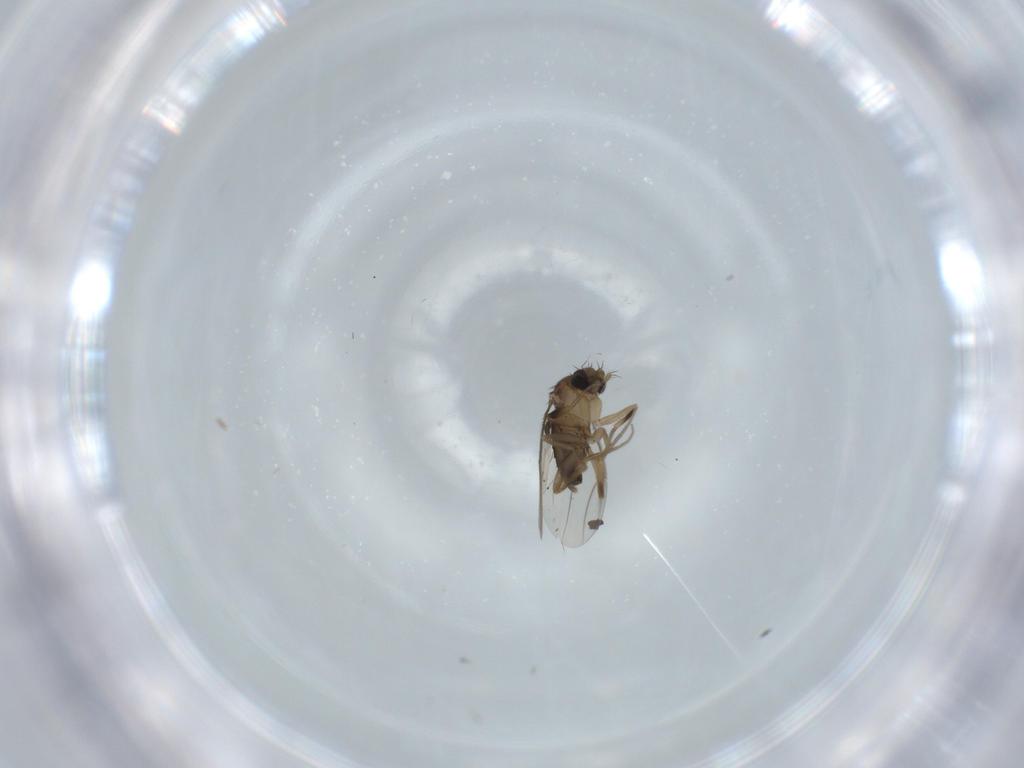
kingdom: Animalia
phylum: Arthropoda
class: Insecta
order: Diptera
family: Phoridae
